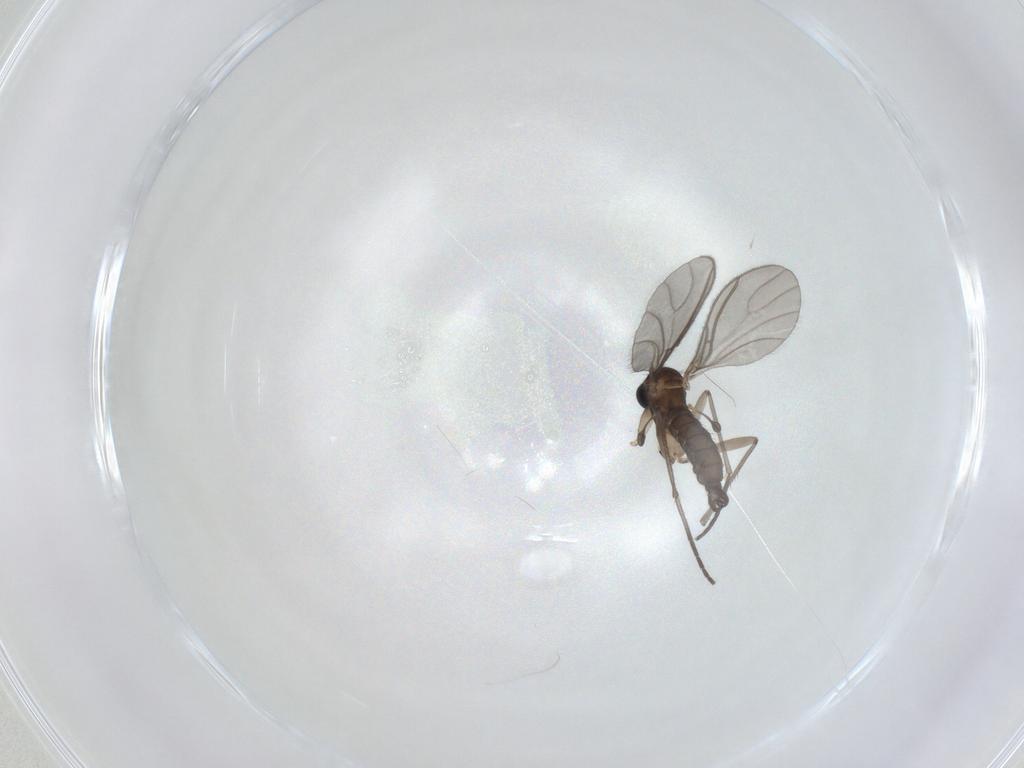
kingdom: Animalia
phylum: Arthropoda
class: Insecta
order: Diptera
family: Sciaridae
